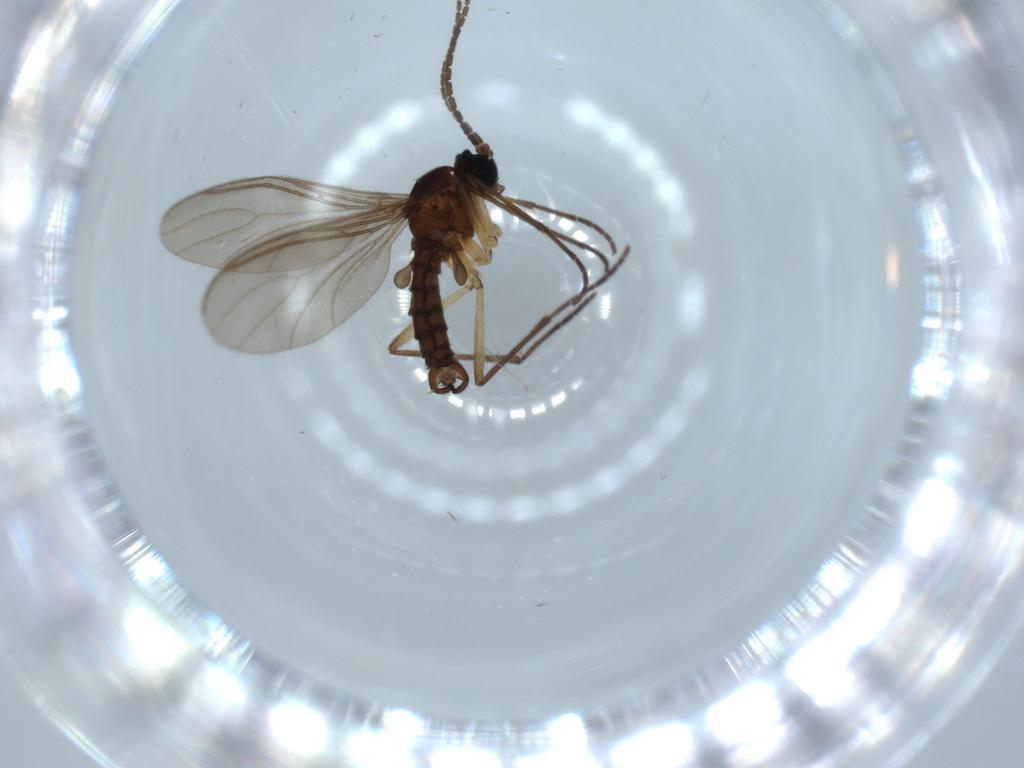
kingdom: Animalia
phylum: Arthropoda
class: Insecta
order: Diptera
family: Sciaridae
